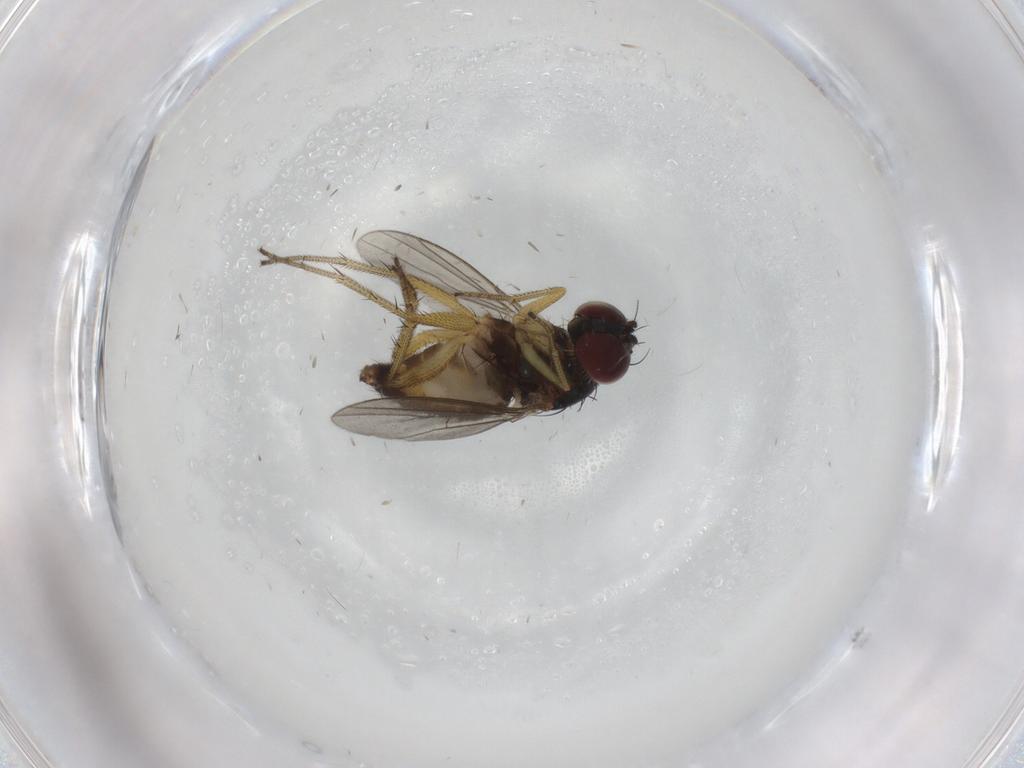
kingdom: Animalia
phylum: Arthropoda
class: Insecta
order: Diptera
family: Dolichopodidae
